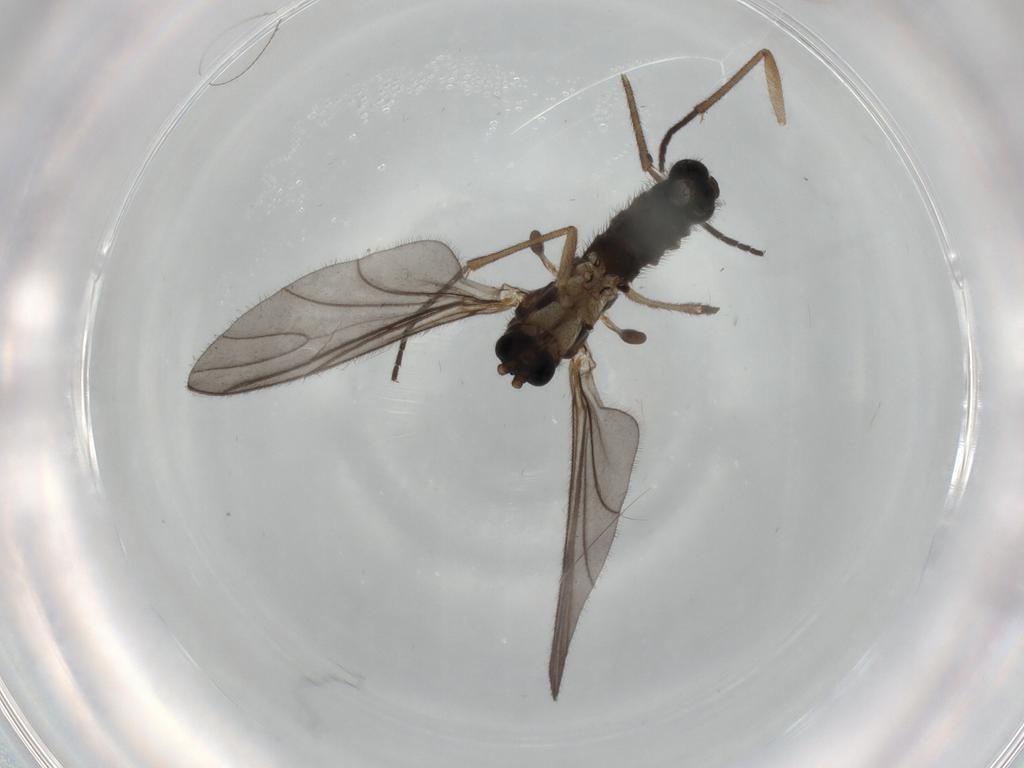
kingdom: Animalia
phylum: Arthropoda
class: Insecta
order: Diptera
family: Sciaridae
